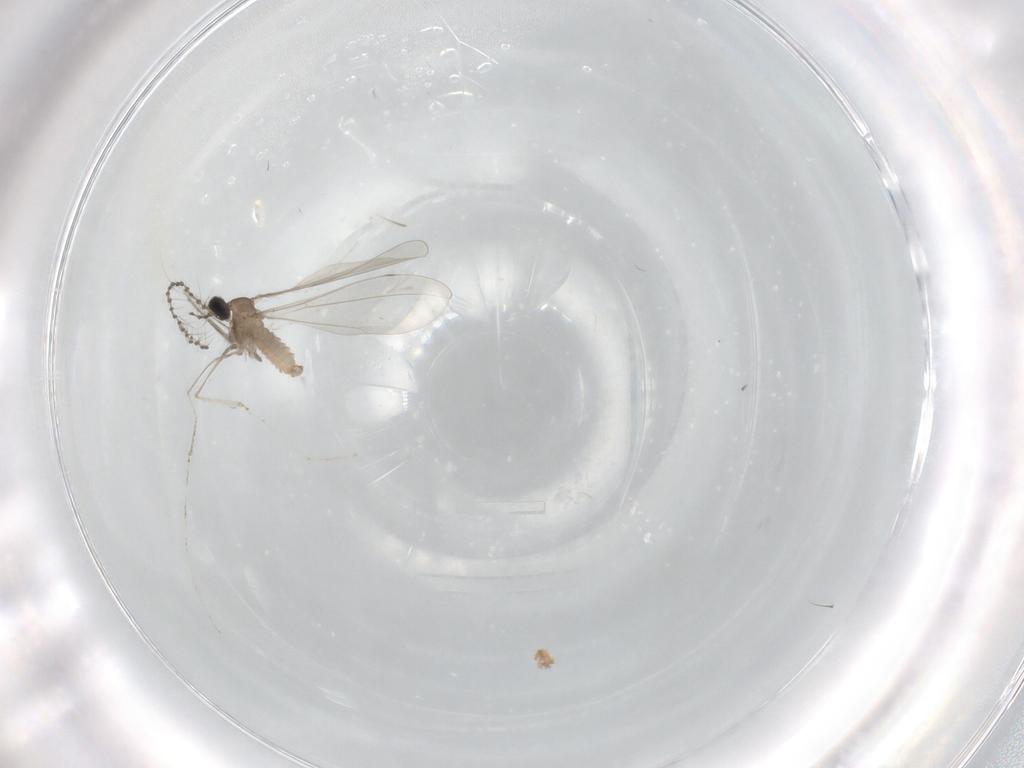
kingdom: Animalia
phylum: Arthropoda
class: Insecta
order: Diptera
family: Cecidomyiidae
